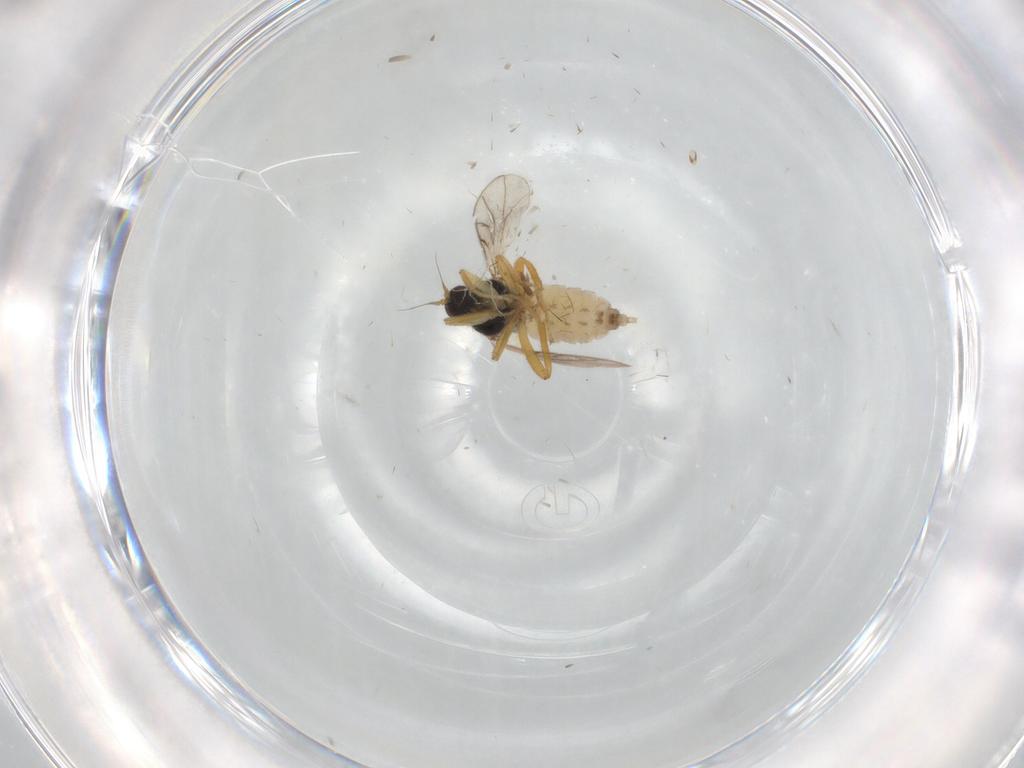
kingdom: Animalia
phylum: Arthropoda
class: Insecta
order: Diptera
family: Hybotidae
